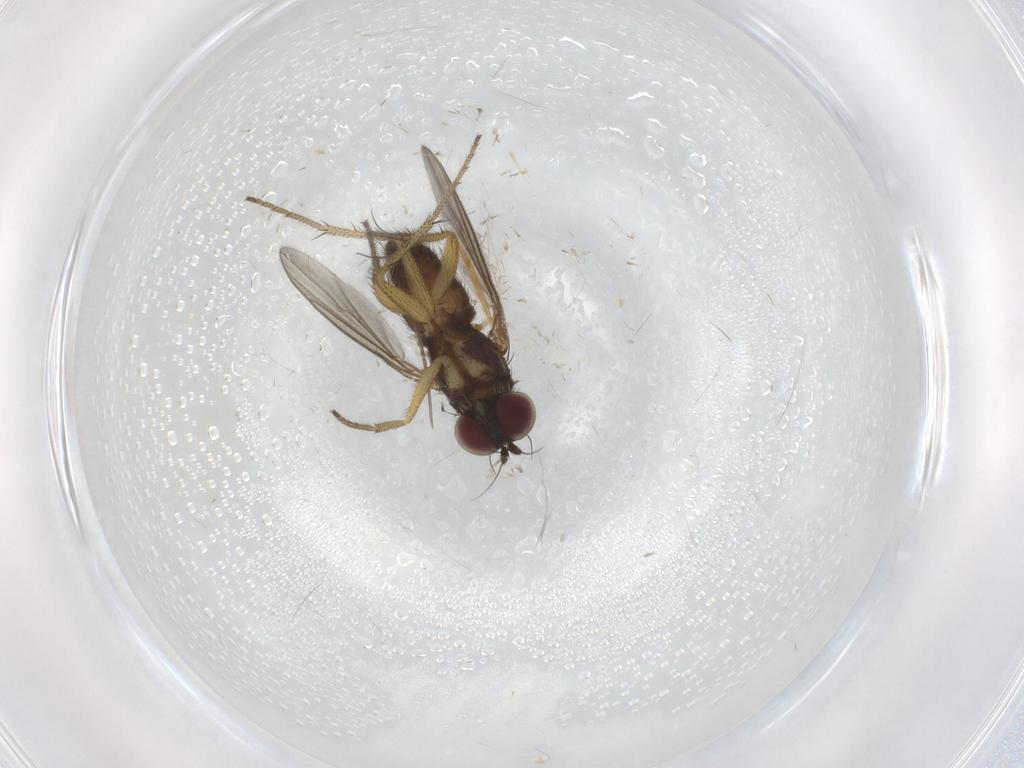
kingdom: Animalia
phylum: Arthropoda
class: Insecta
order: Diptera
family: Dolichopodidae
